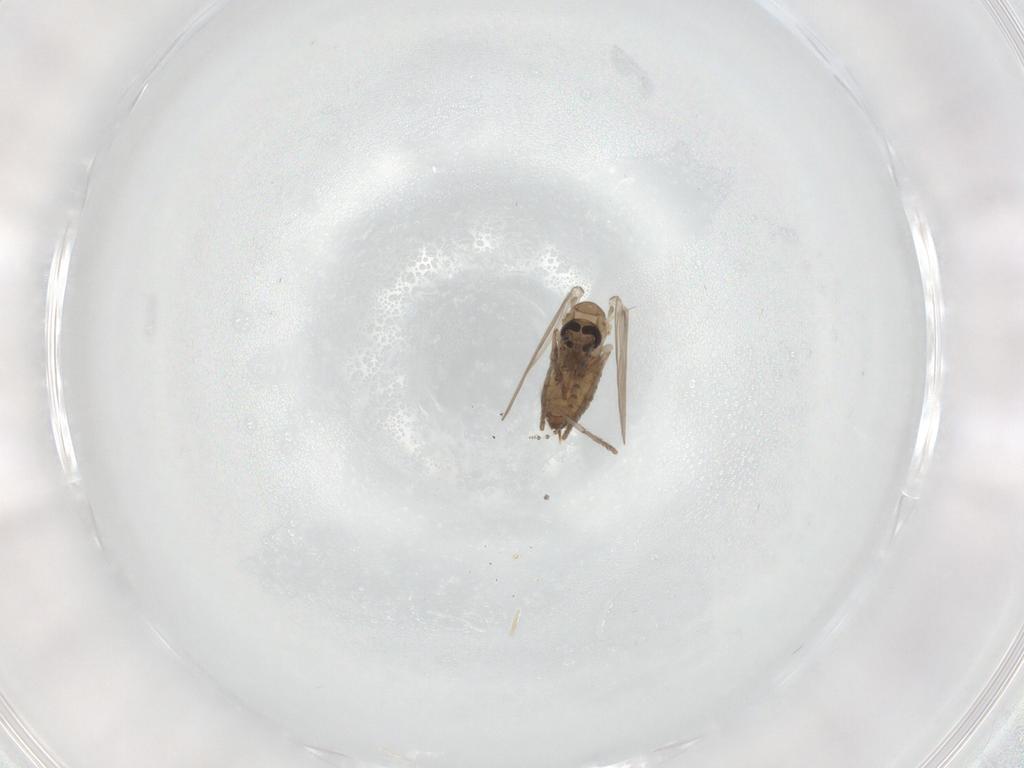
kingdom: Animalia
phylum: Arthropoda
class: Insecta
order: Diptera
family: Psychodidae
